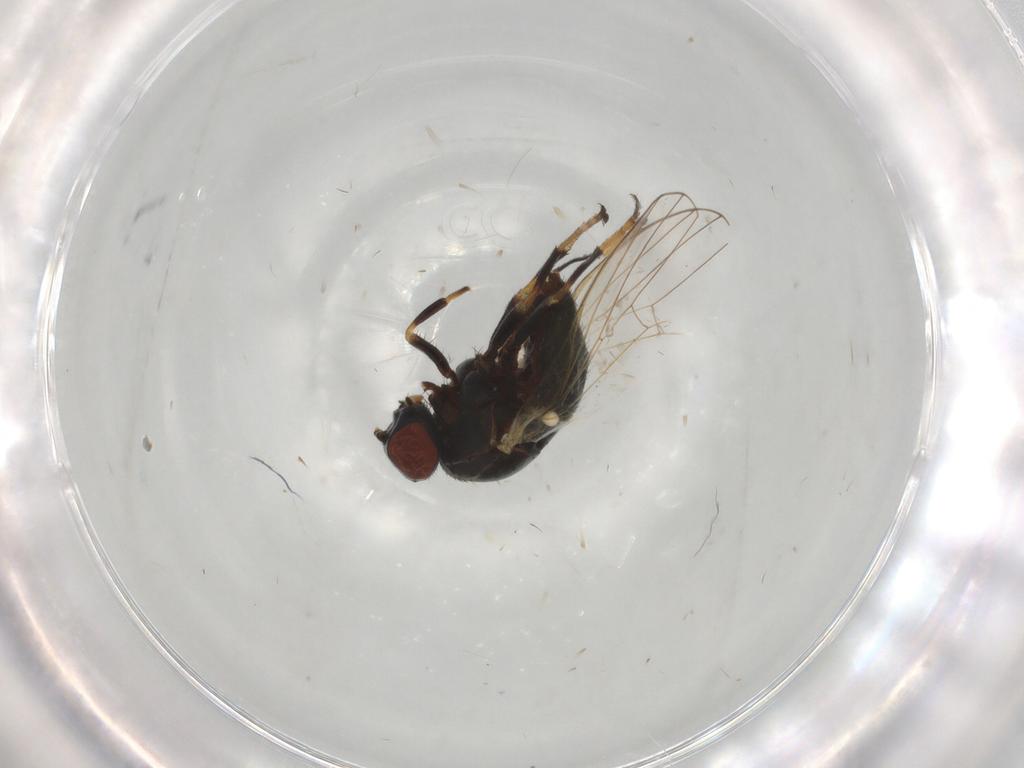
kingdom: Animalia
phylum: Arthropoda
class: Insecta
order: Diptera
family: Chamaemyiidae
